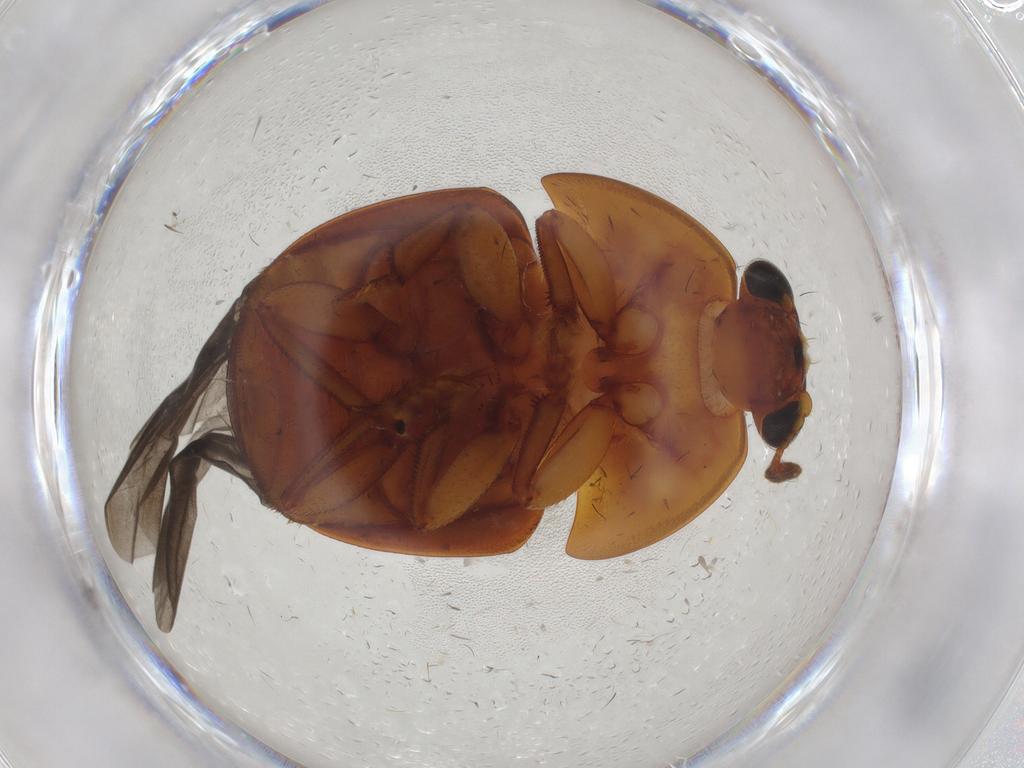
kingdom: Animalia
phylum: Arthropoda
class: Insecta
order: Coleoptera
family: Nitidulidae
